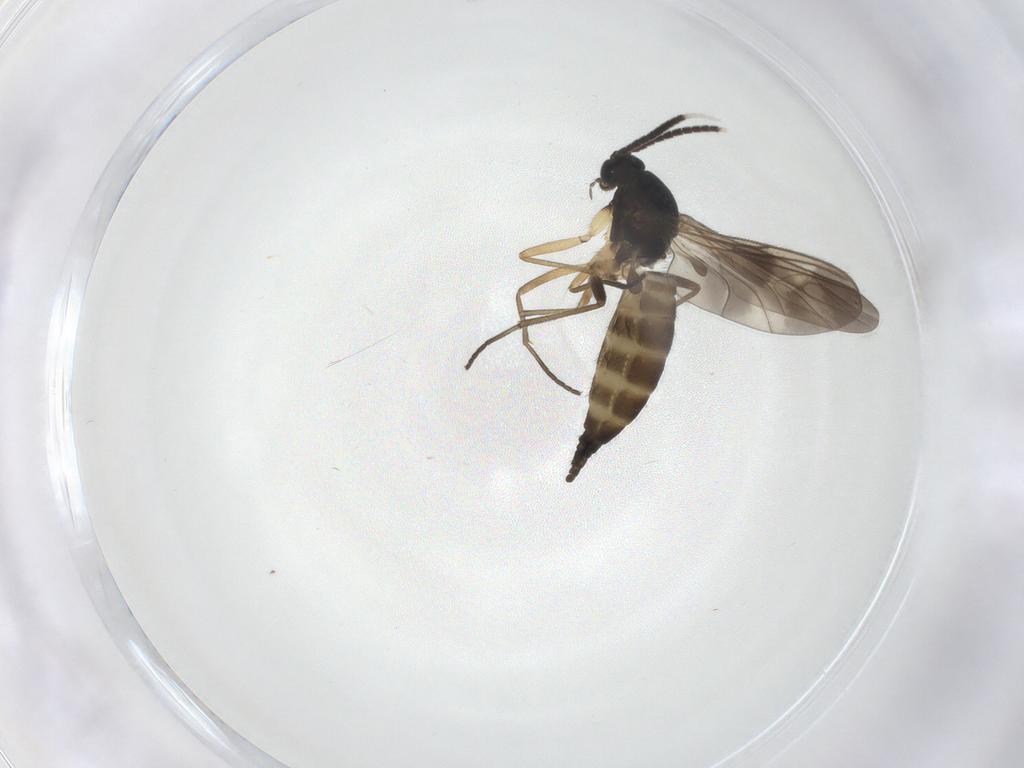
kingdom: Animalia
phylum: Arthropoda
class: Insecta
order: Diptera
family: Sciaridae
